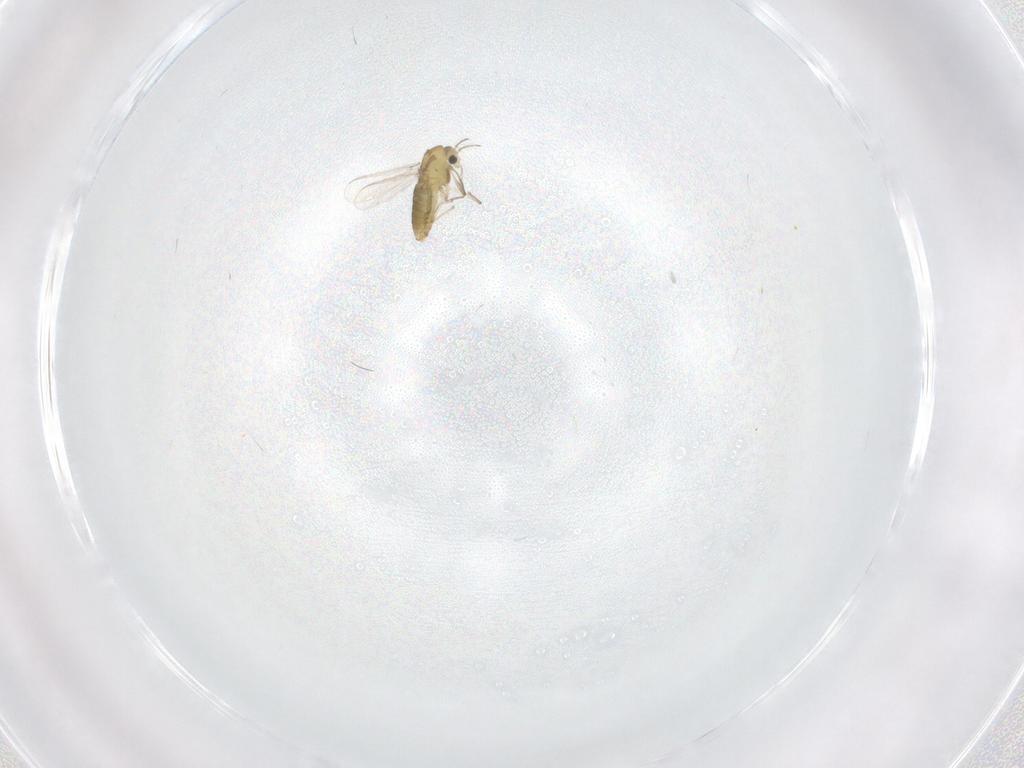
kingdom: Animalia
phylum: Arthropoda
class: Insecta
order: Diptera
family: Chironomidae
